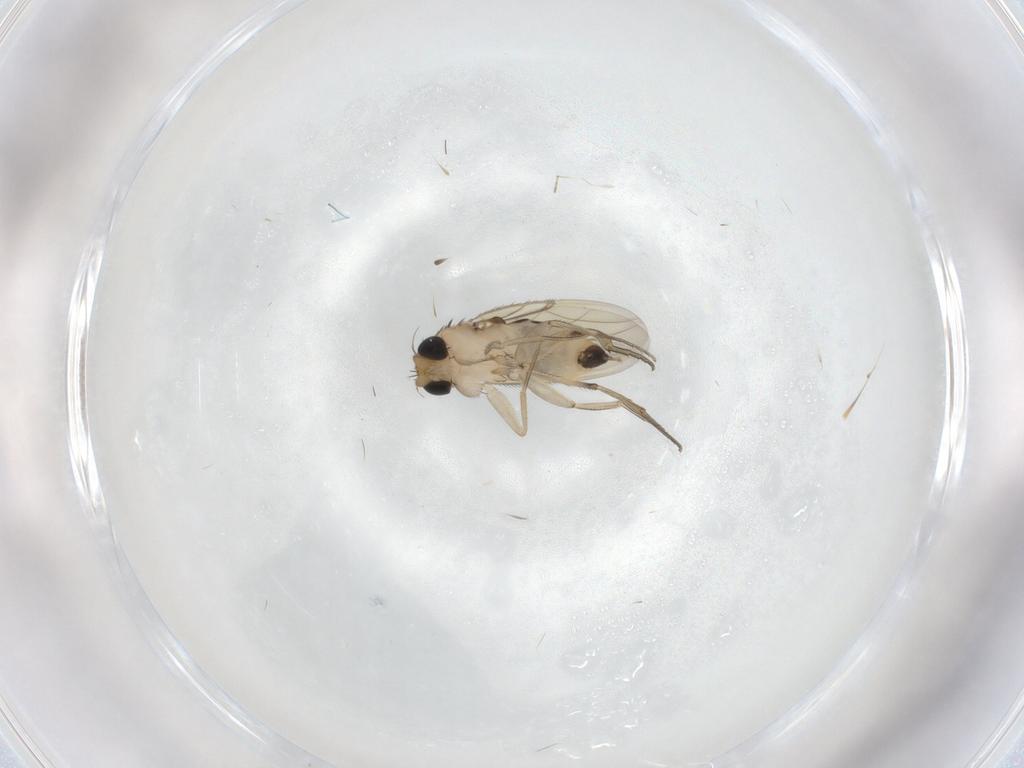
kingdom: Animalia
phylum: Arthropoda
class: Insecta
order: Diptera
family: Phoridae
